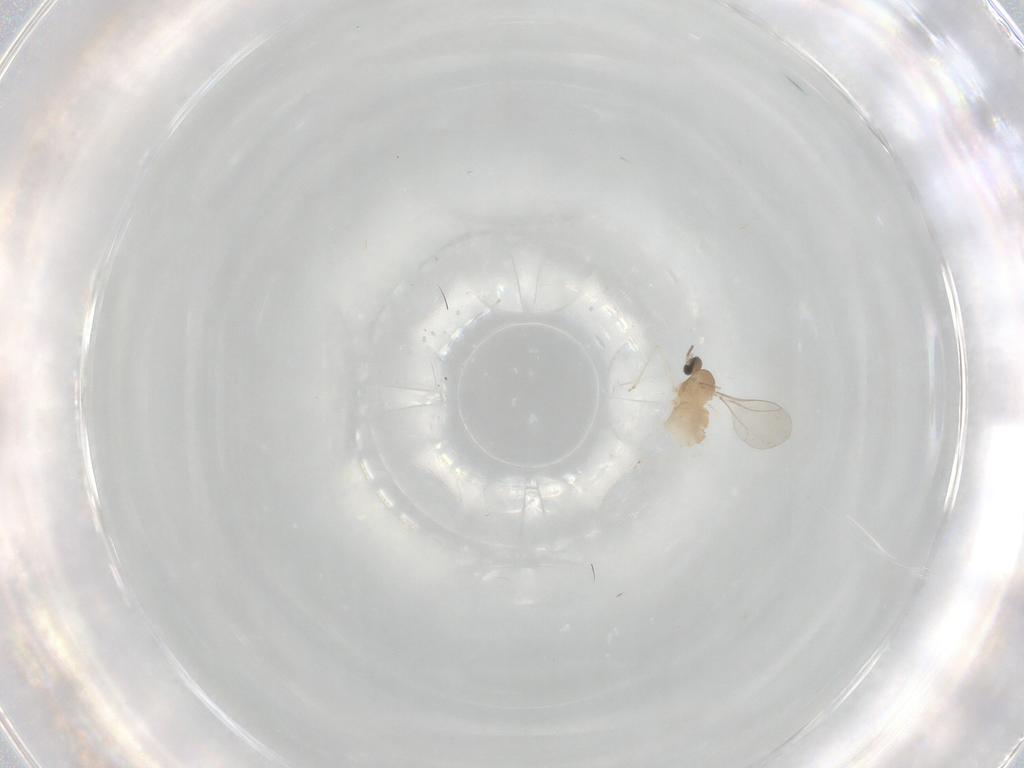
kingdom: Animalia
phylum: Arthropoda
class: Insecta
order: Diptera
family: Cecidomyiidae
